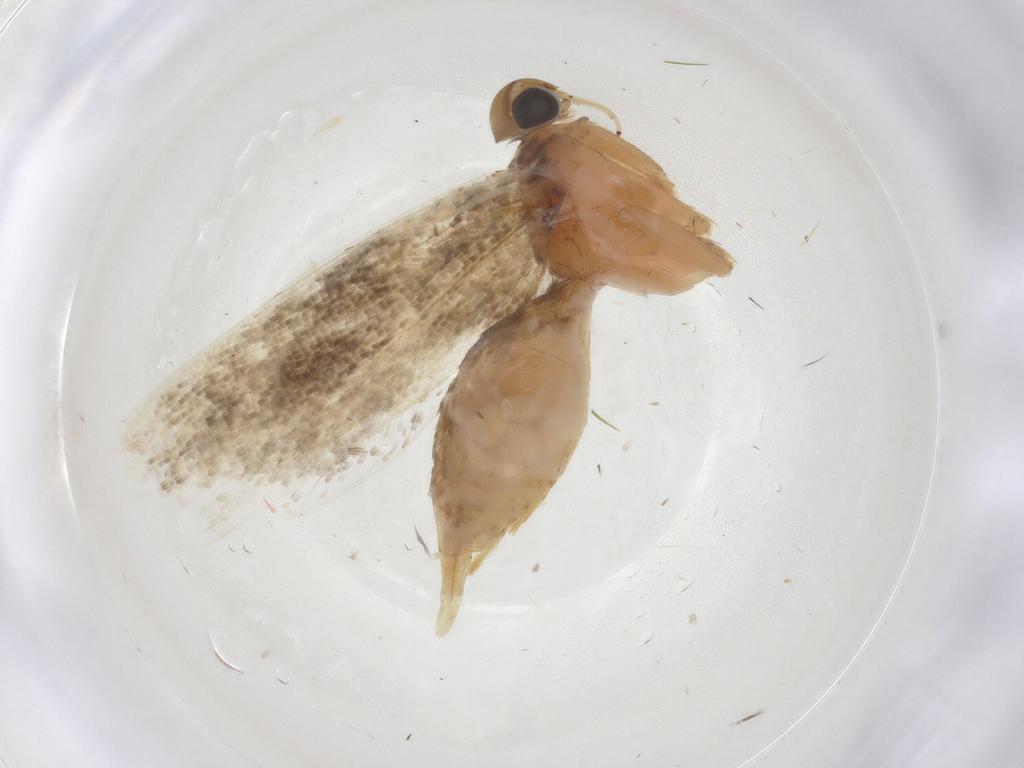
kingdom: Animalia
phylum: Arthropoda
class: Insecta
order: Lepidoptera
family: Gelechiidae
